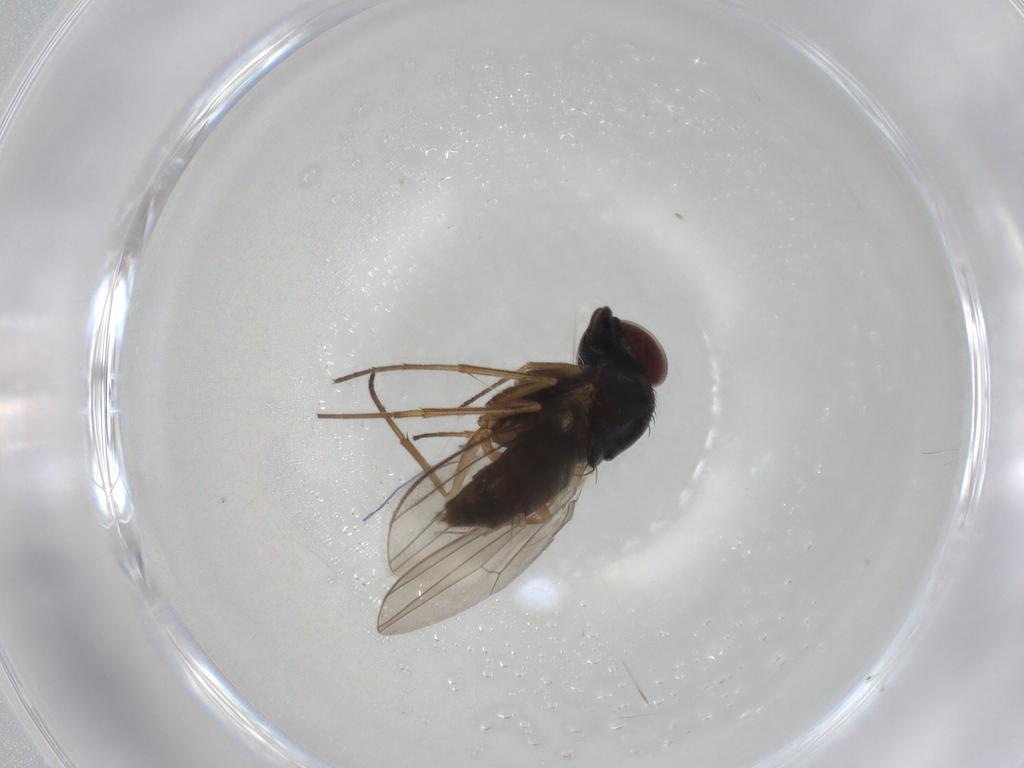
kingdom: Animalia
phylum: Arthropoda
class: Insecta
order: Diptera
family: Dolichopodidae
